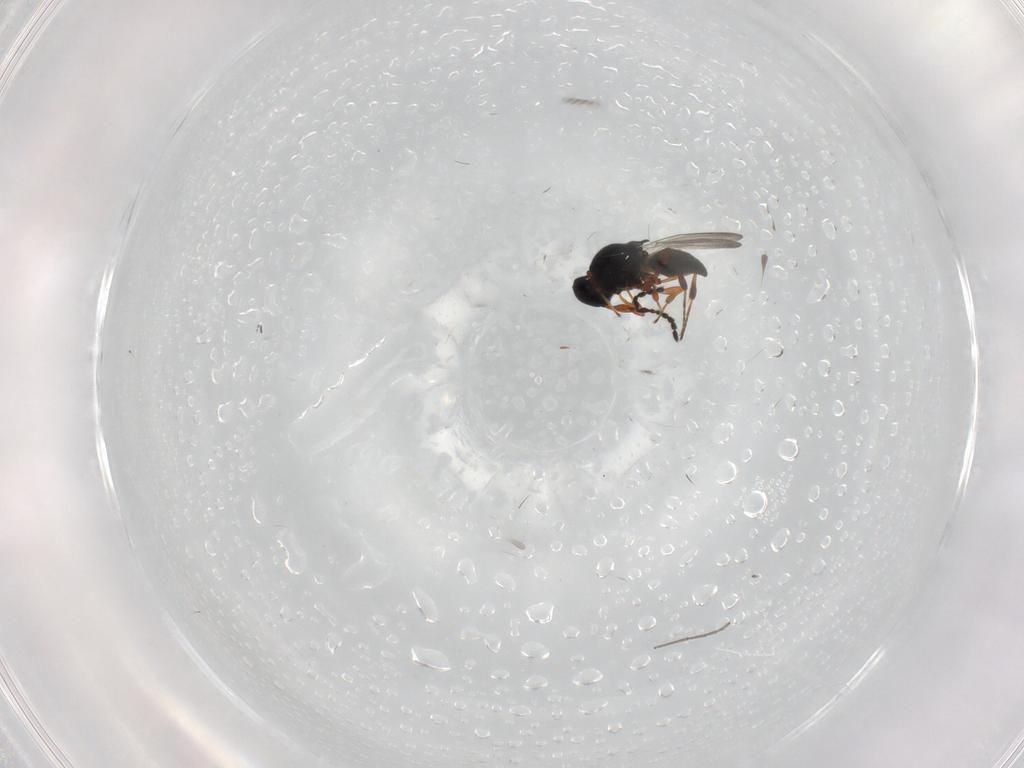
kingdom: Animalia
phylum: Arthropoda
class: Insecta
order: Hymenoptera
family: Platygastridae
